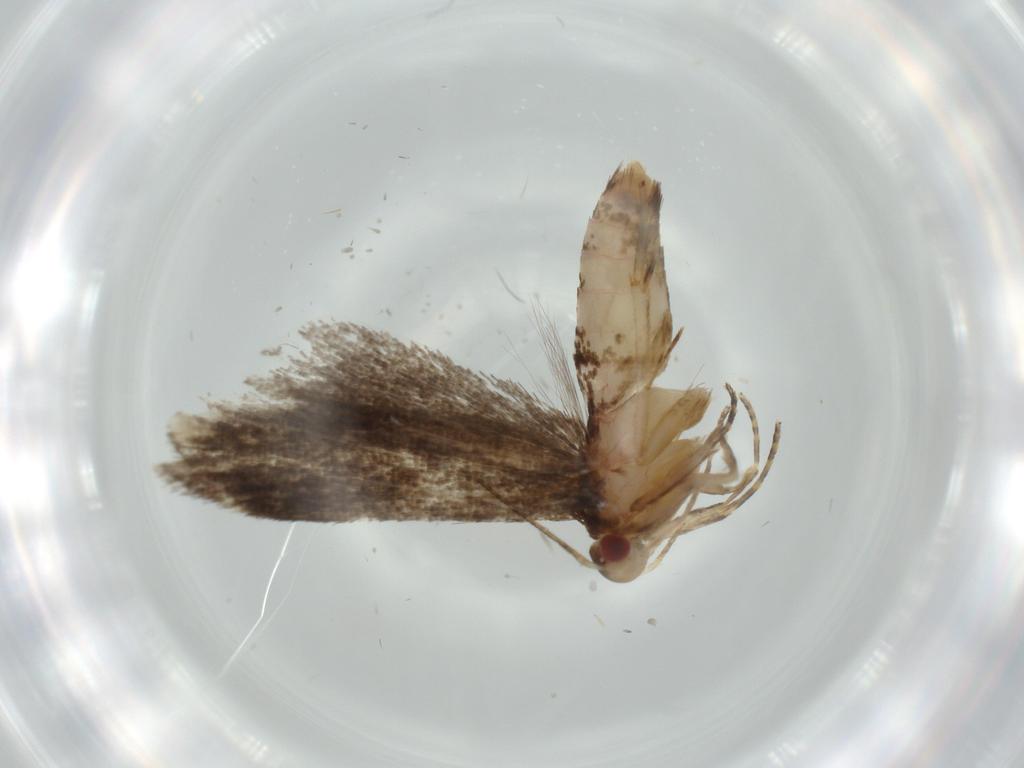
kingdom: Animalia
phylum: Arthropoda
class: Insecta
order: Lepidoptera
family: Gelechiidae
